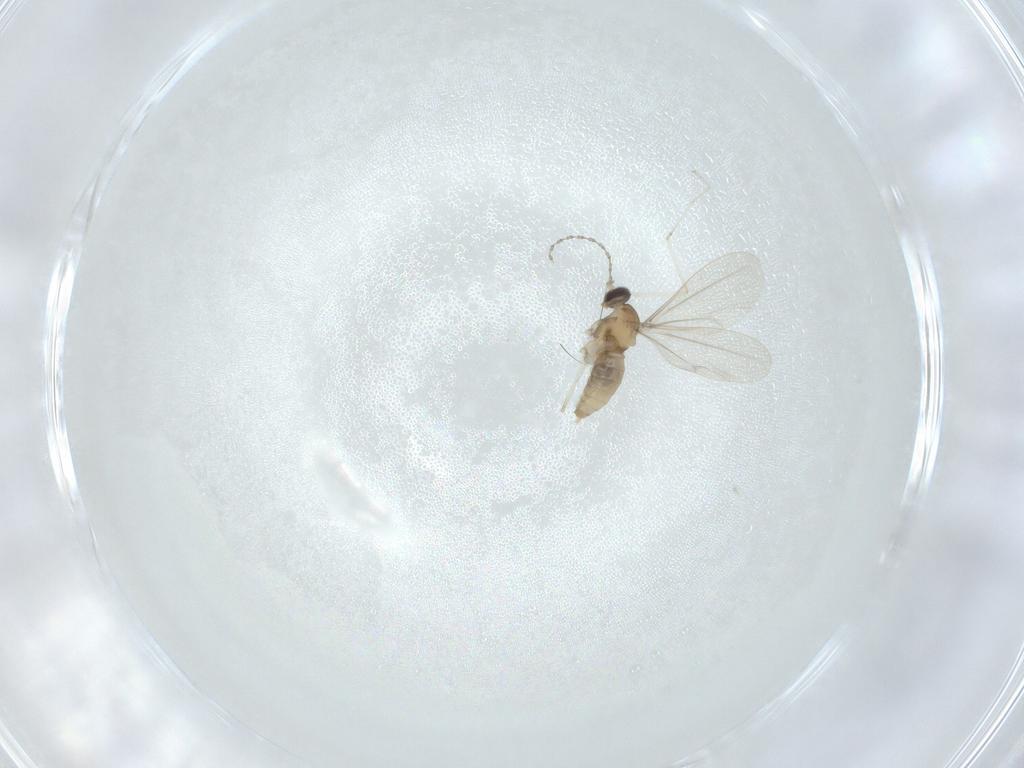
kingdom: Animalia
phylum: Arthropoda
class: Insecta
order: Diptera
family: Cecidomyiidae
